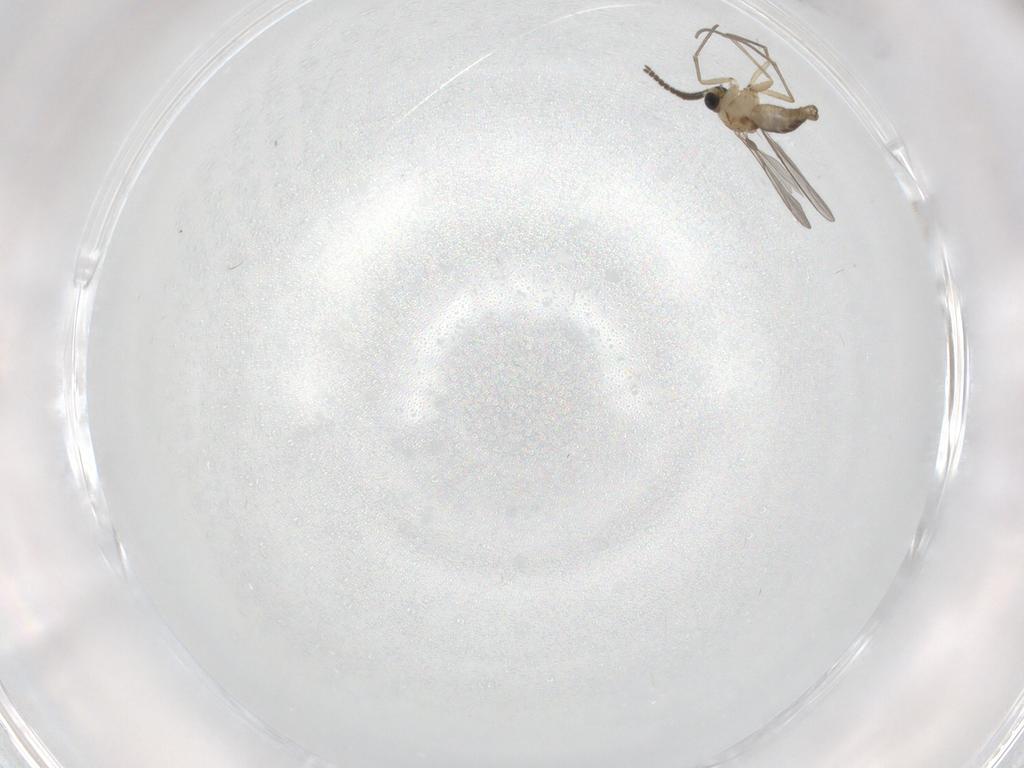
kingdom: Animalia
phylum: Arthropoda
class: Insecta
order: Diptera
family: Sciaridae
